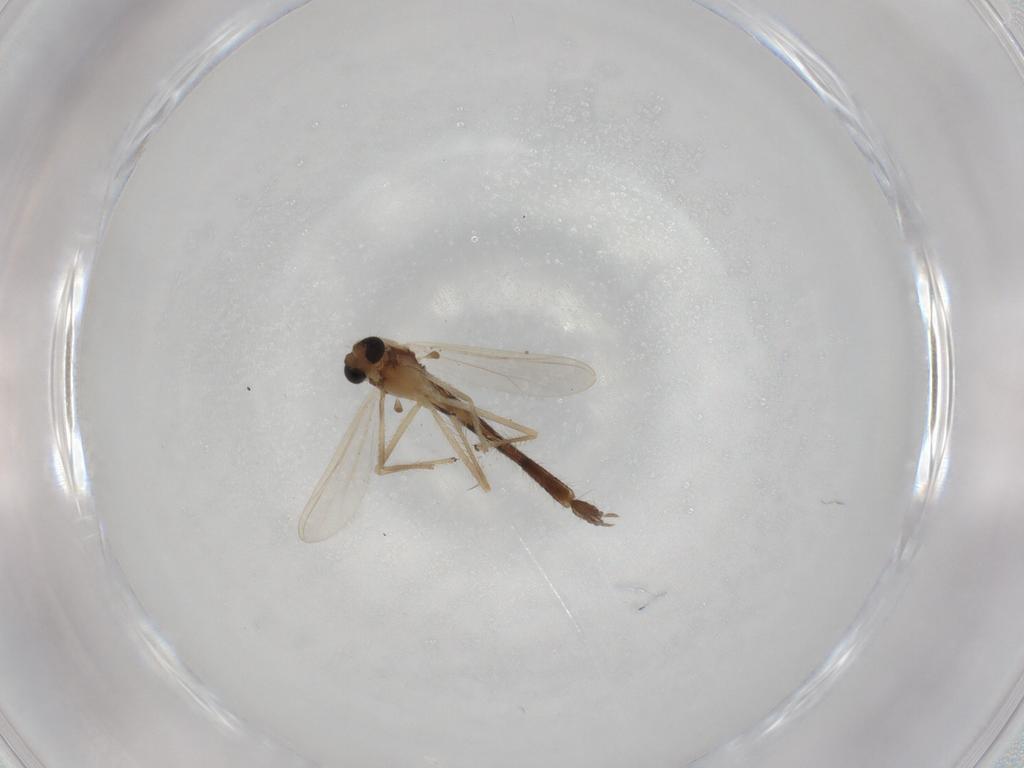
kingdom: Animalia
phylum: Arthropoda
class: Insecta
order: Diptera
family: Chironomidae
